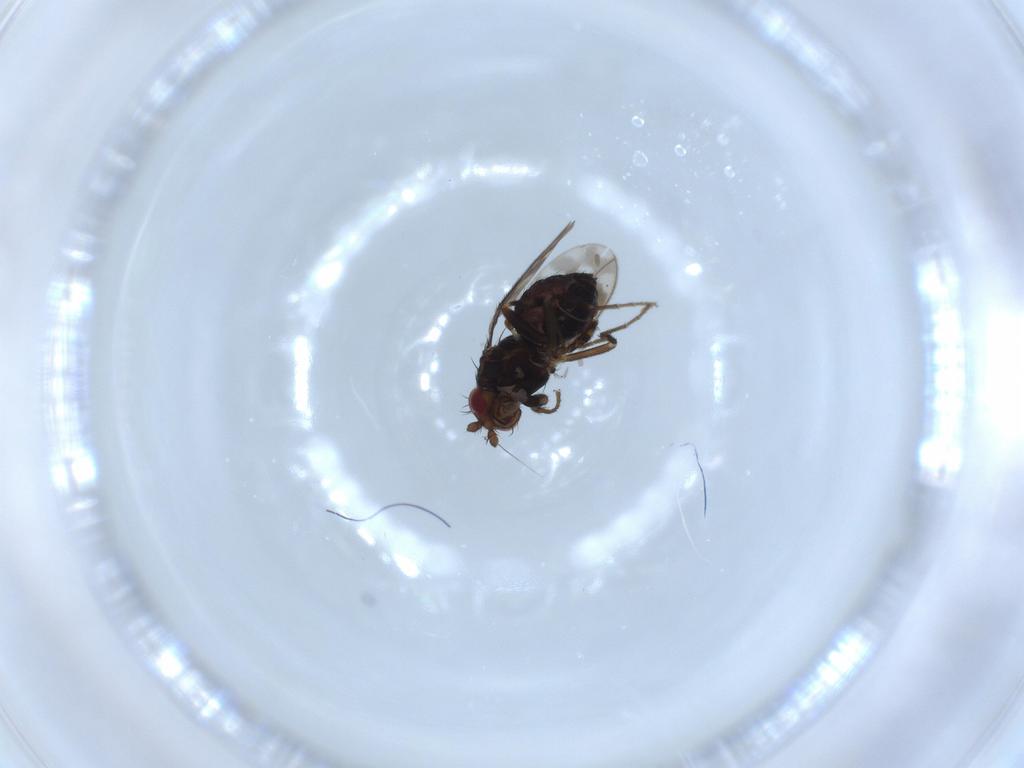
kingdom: Animalia
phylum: Arthropoda
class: Insecta
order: Diptera
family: Sphaeroceridae
